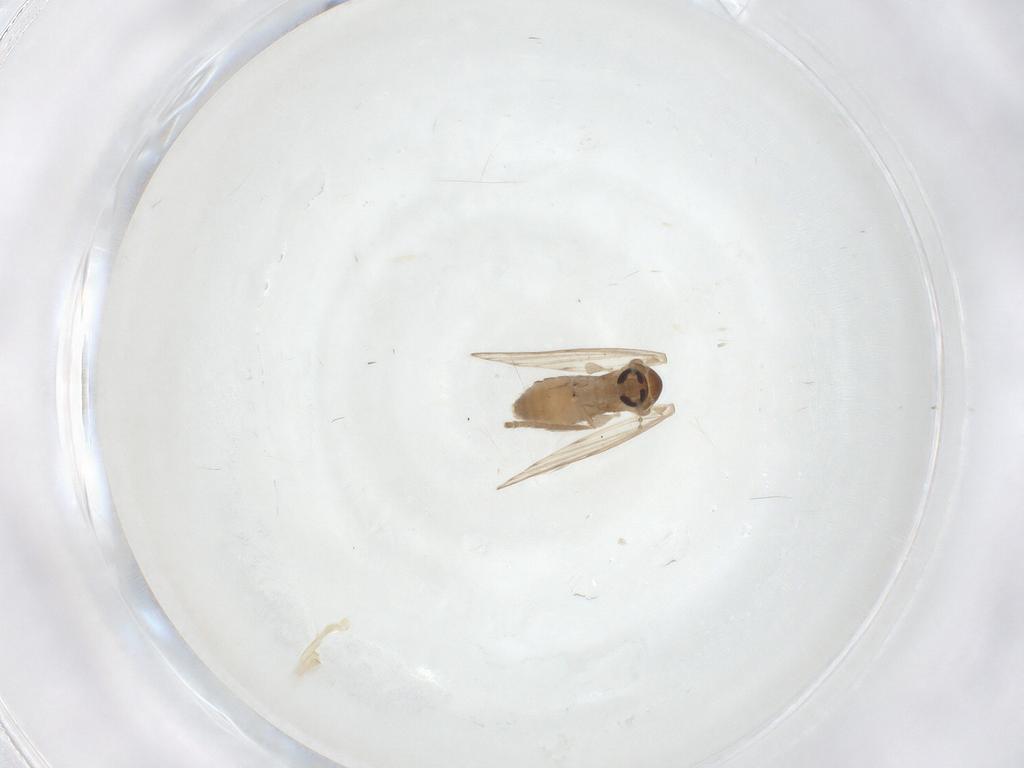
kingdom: Animalia
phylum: Arthropoda
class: Insecta
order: Diptera
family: Psychodidae
